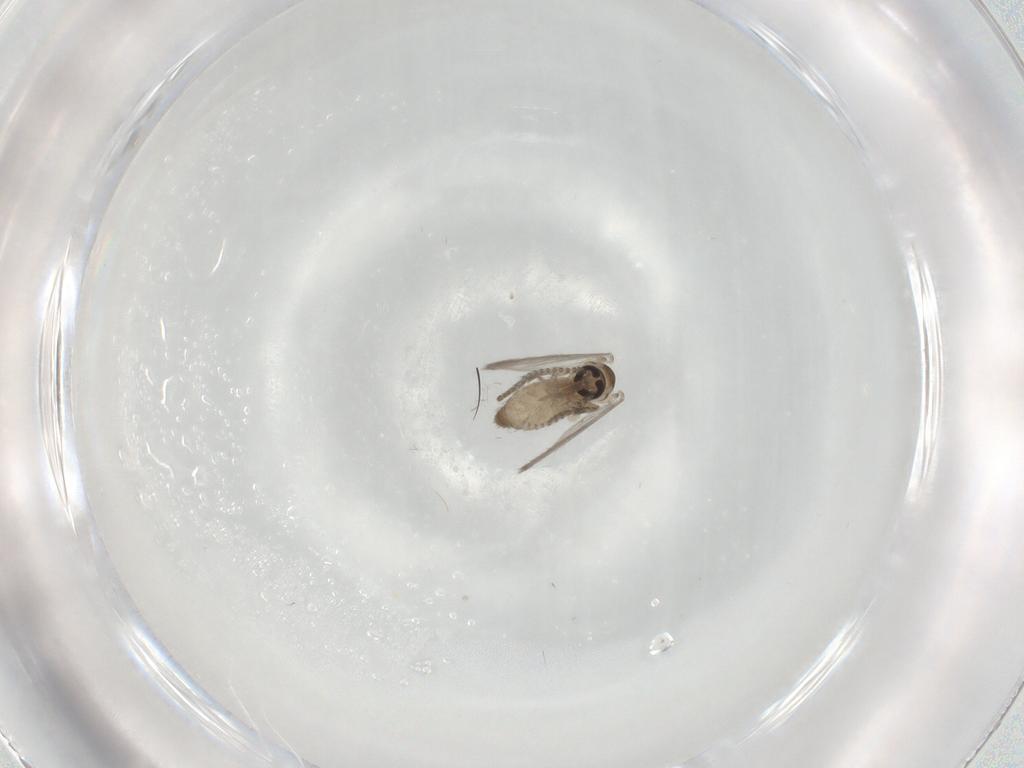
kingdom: Animalia
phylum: Arthropoda
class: Insecta
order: Diptera
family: Psychodidae
